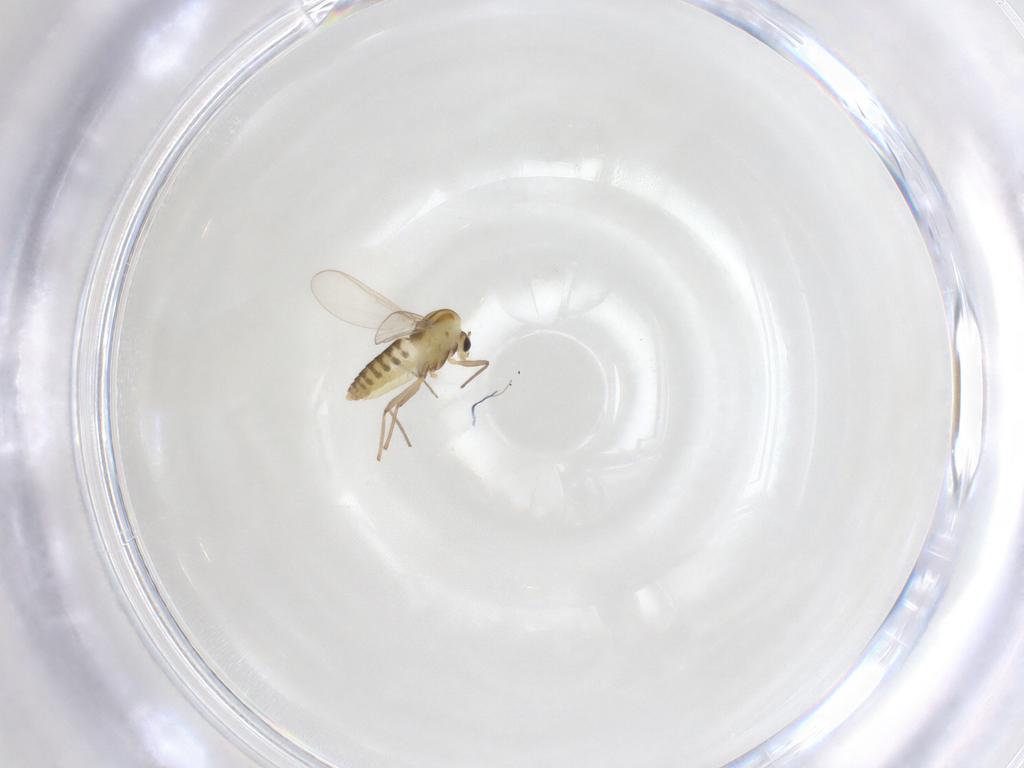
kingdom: Animalia
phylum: Arthropoda
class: Insecta
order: Diptera
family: Chironomidae
